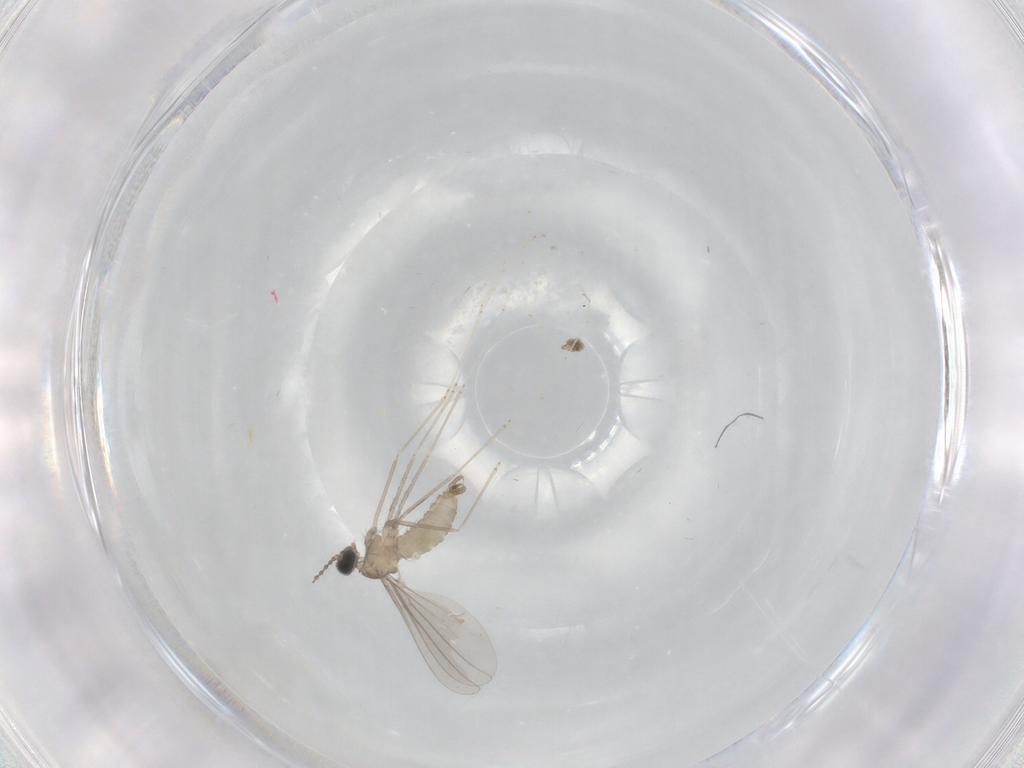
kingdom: Animalia
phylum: Arthropoda
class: Insecta
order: Diptera
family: Cecidomyiidae
